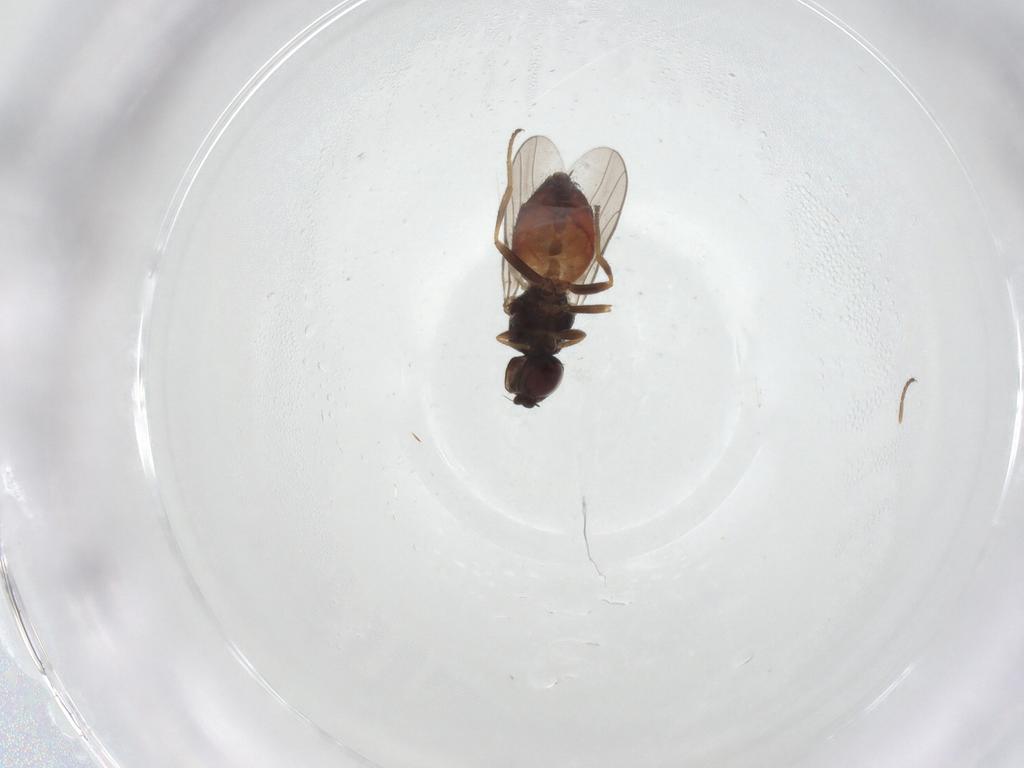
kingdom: Animalia
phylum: Arthropoda
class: Insecta
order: Diptera
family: Chloropidae
